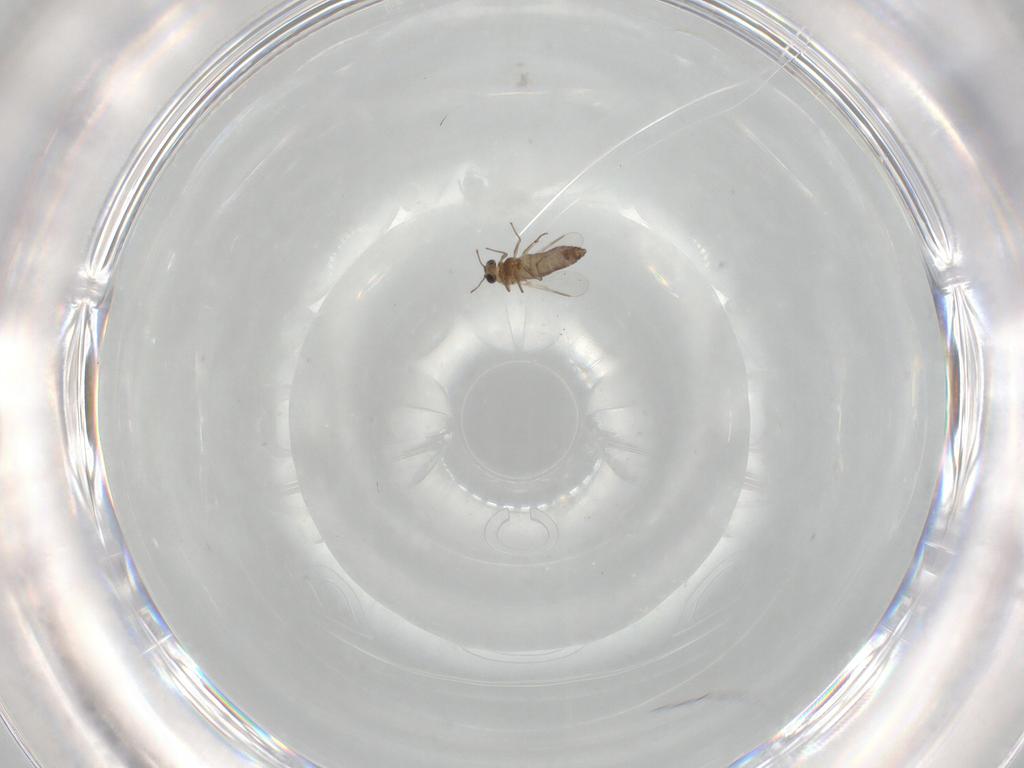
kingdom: Animalia
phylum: Arthropoda
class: Insecta
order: Diptera
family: Chironomidae
